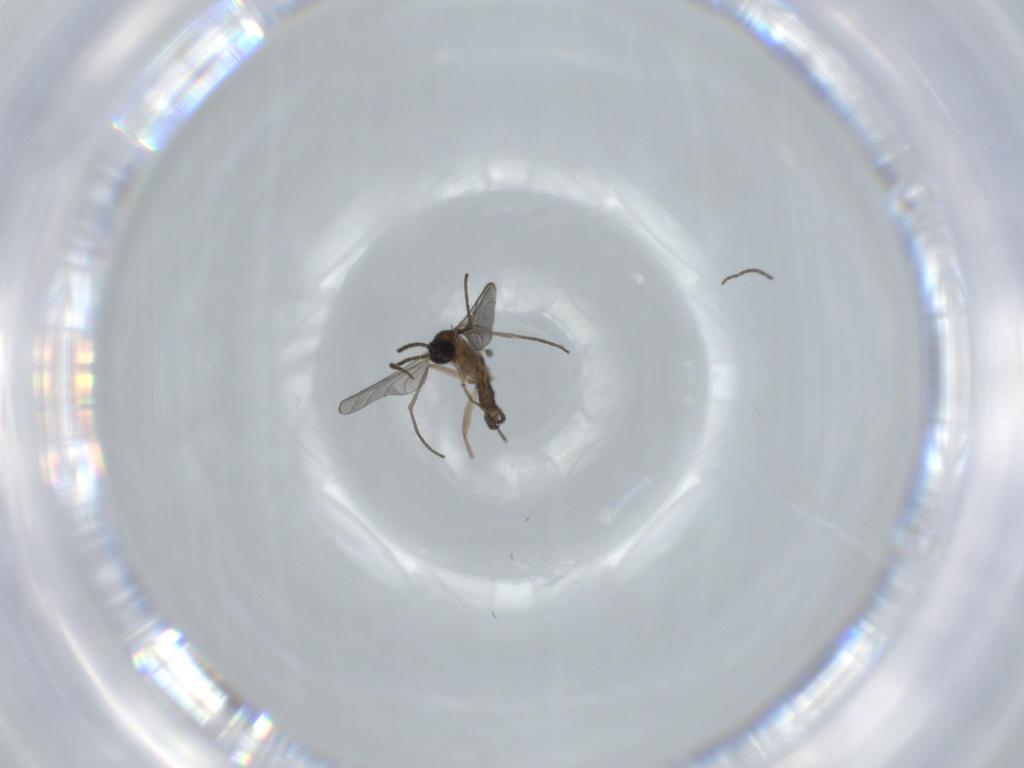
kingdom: Animalia
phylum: Arthropoda
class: Insecta
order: Diptera
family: Sciaridae
